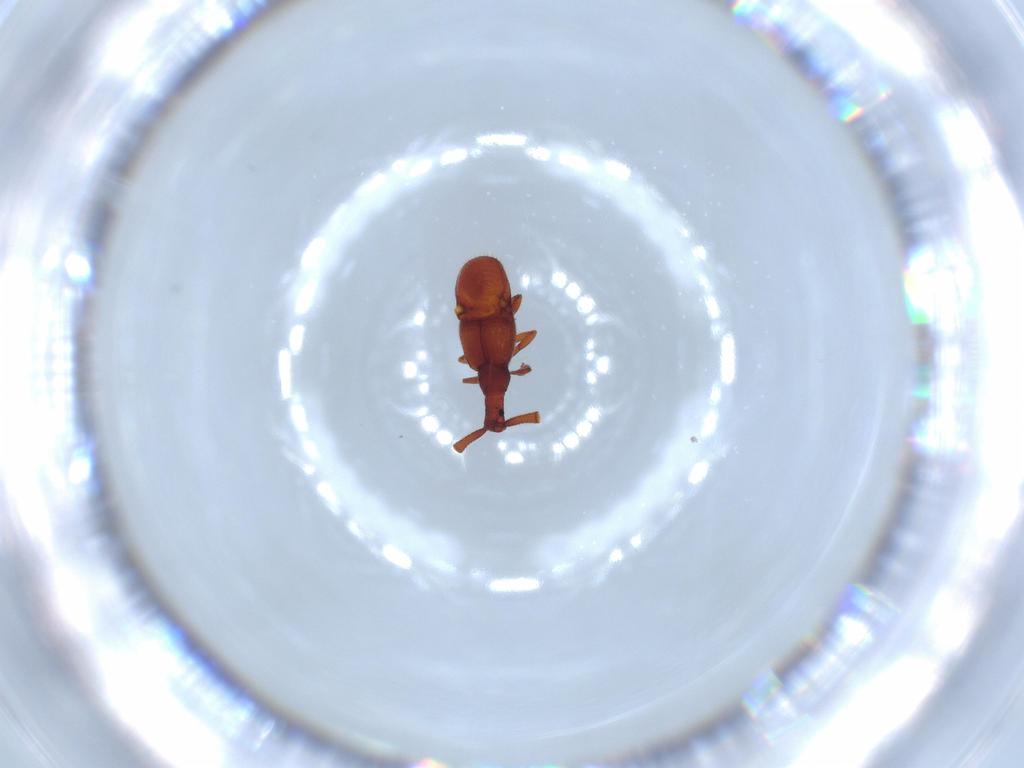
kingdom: Animalia
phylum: Arthropoda
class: Insecta
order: Coleoptera
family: Staphylinidae
